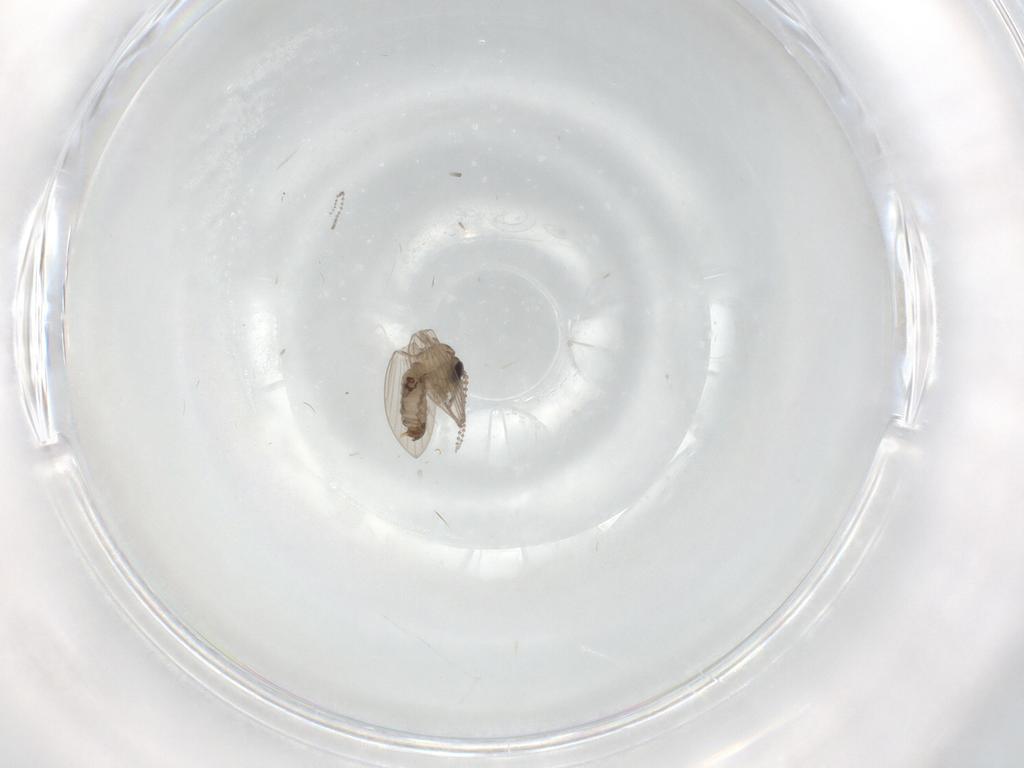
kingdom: Animalia
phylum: Arthropoda
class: Insecta
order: Diptera
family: Psychodidae
